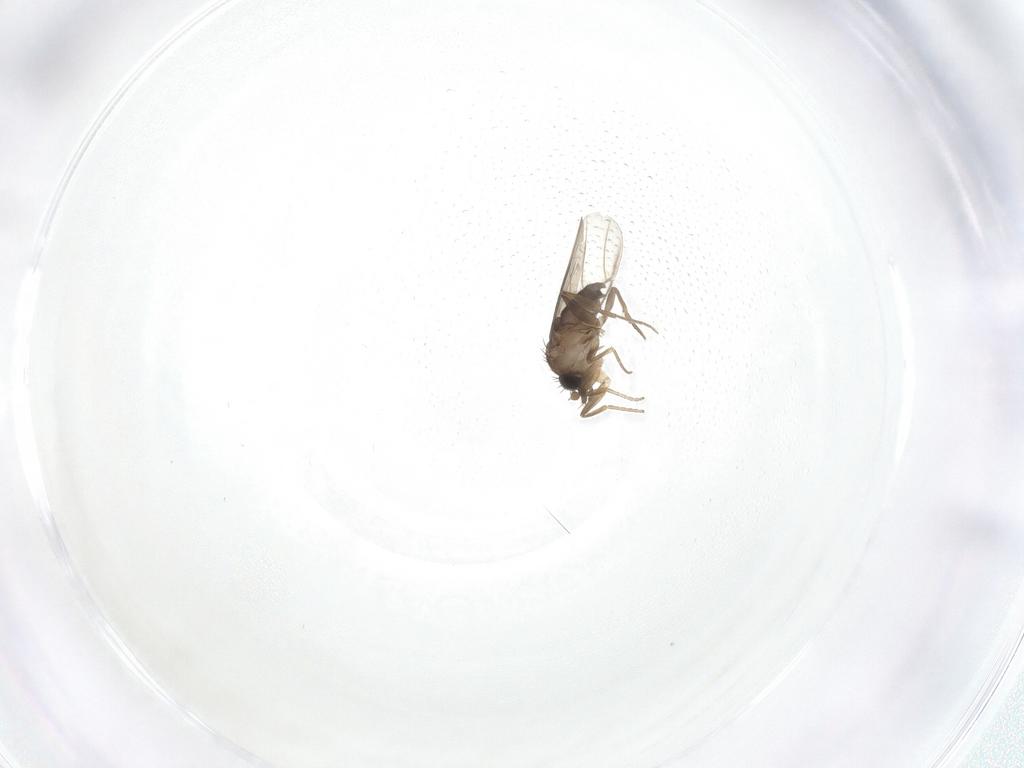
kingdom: Animalia
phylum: Arthropoda
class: Insecta
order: Diptera
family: Phoridae
